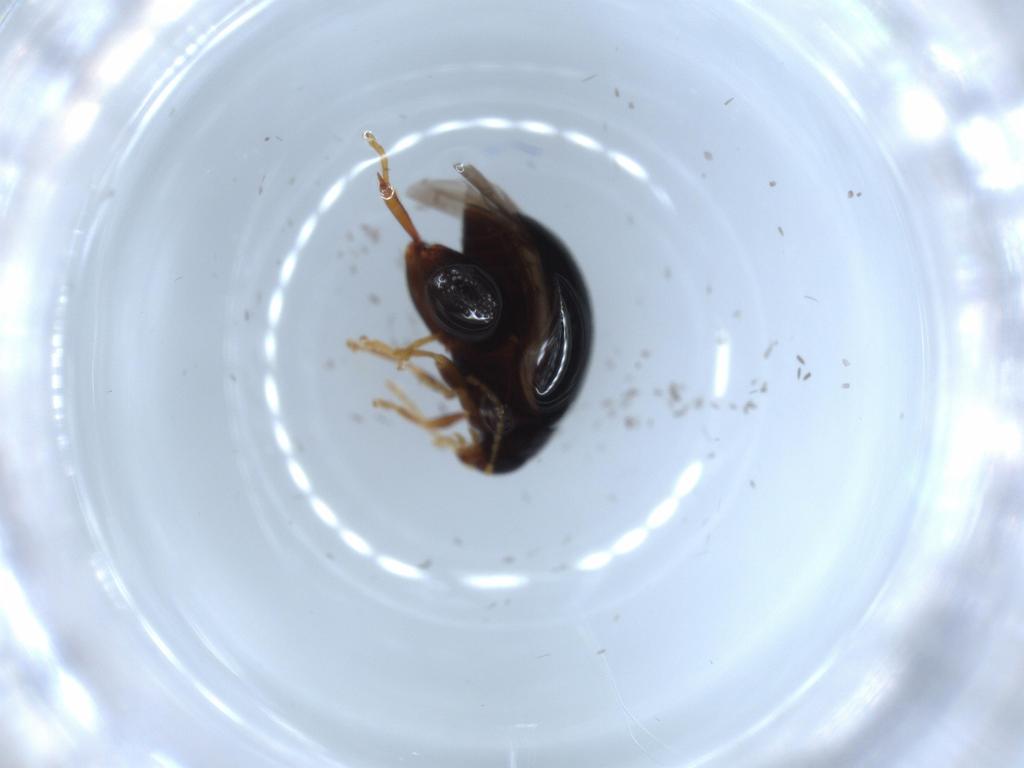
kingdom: Animalia
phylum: Arthropoda
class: Insecta
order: Coleoptera
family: Chrysomelidae
